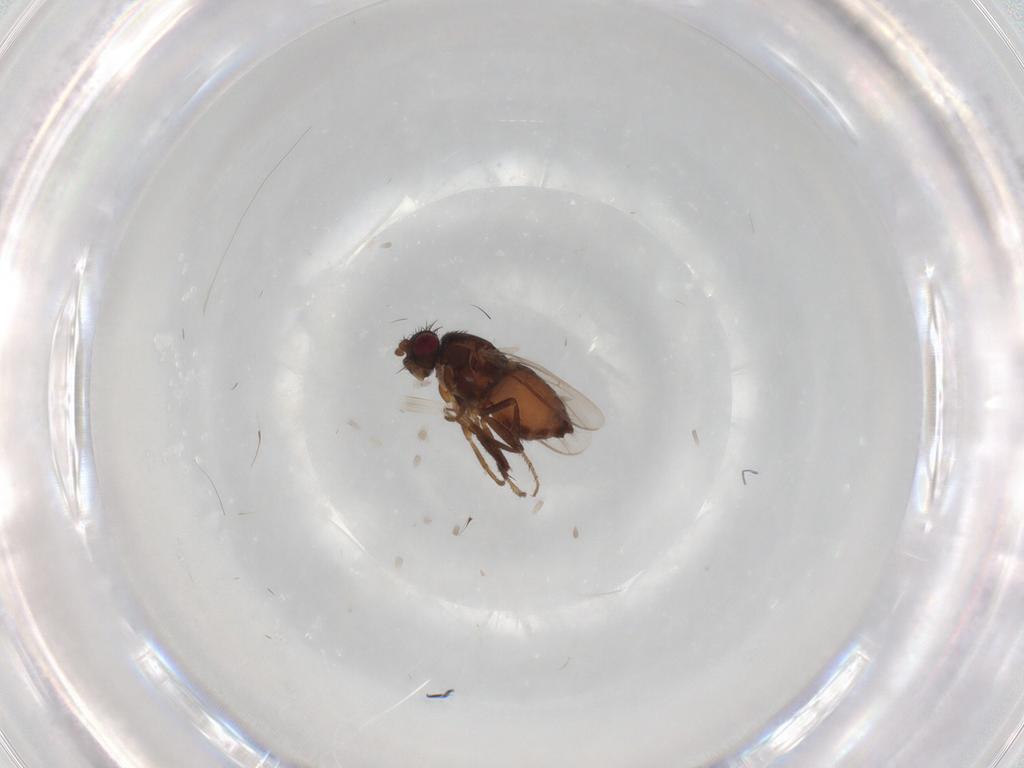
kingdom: Animalia
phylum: Arthropoda
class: Insecta
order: Diptera
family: Sphaeroceridae
